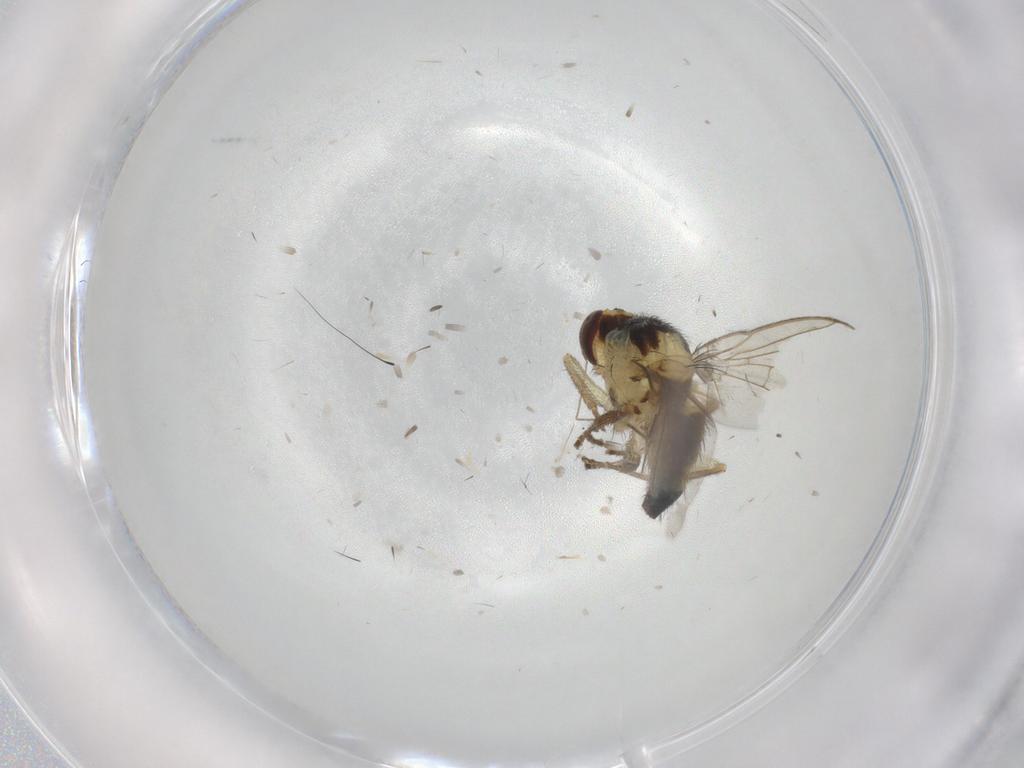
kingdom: Animalia
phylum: Arthropoda
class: Insecta
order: Diptera
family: Chironomidae
